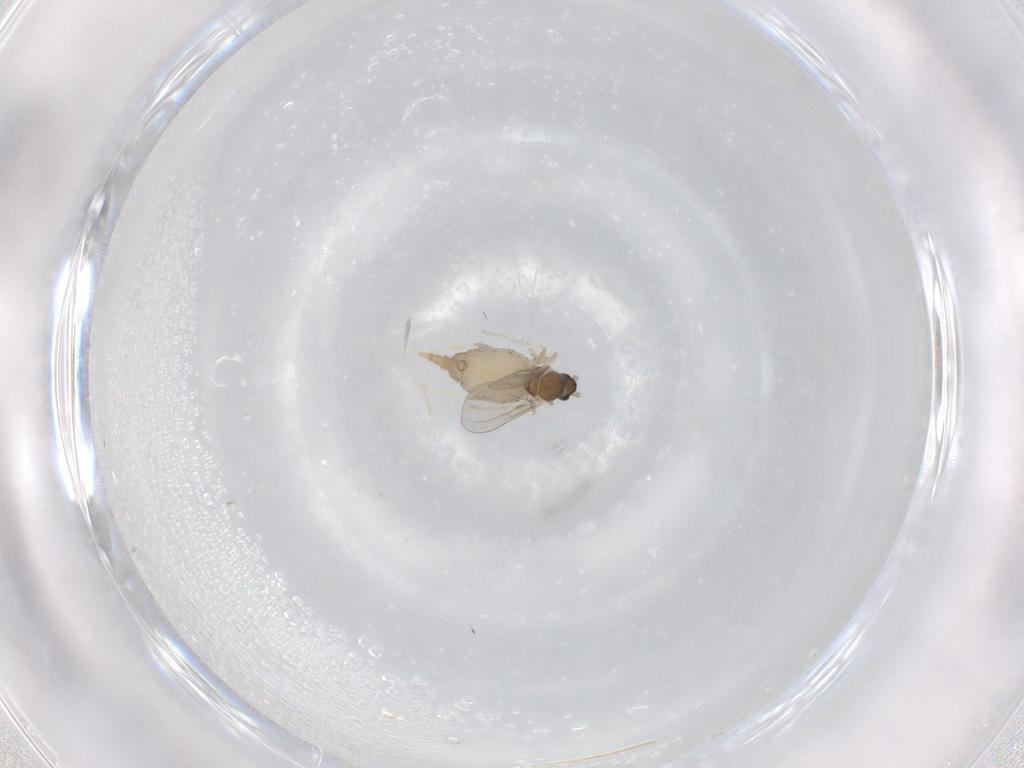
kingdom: Animalia
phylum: Arthropoda
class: Insecta
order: Diptera
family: Cecidomyiidae
